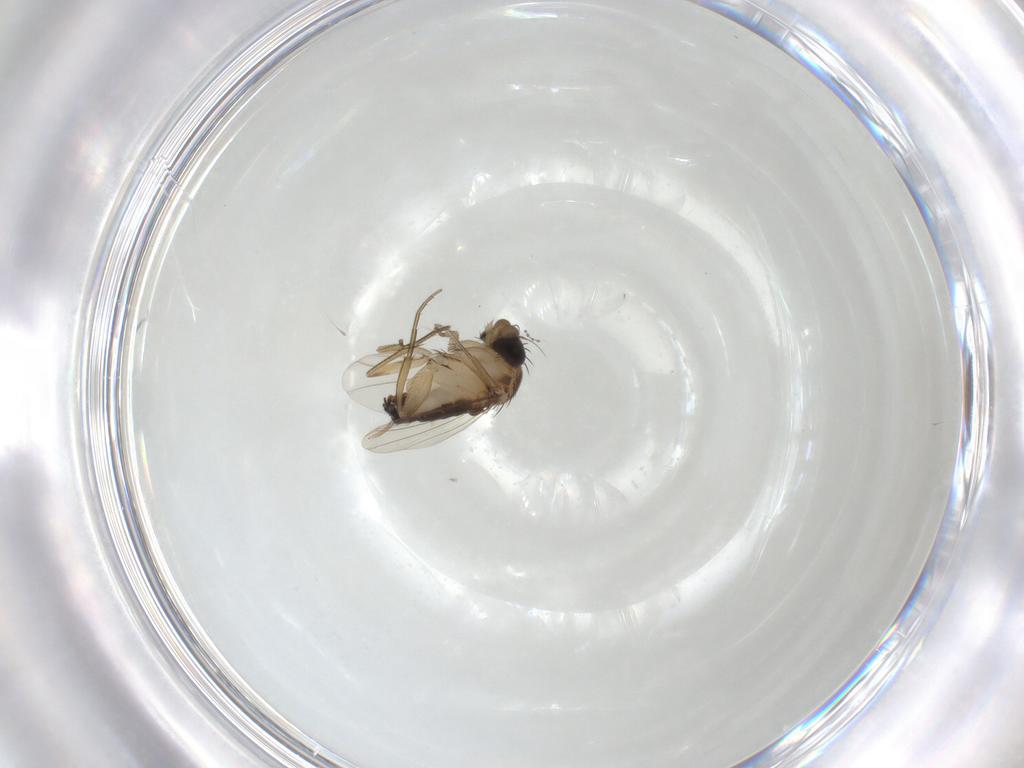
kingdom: Animalia
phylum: Arthropoda
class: Insecta
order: Diptera
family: Phoridae
